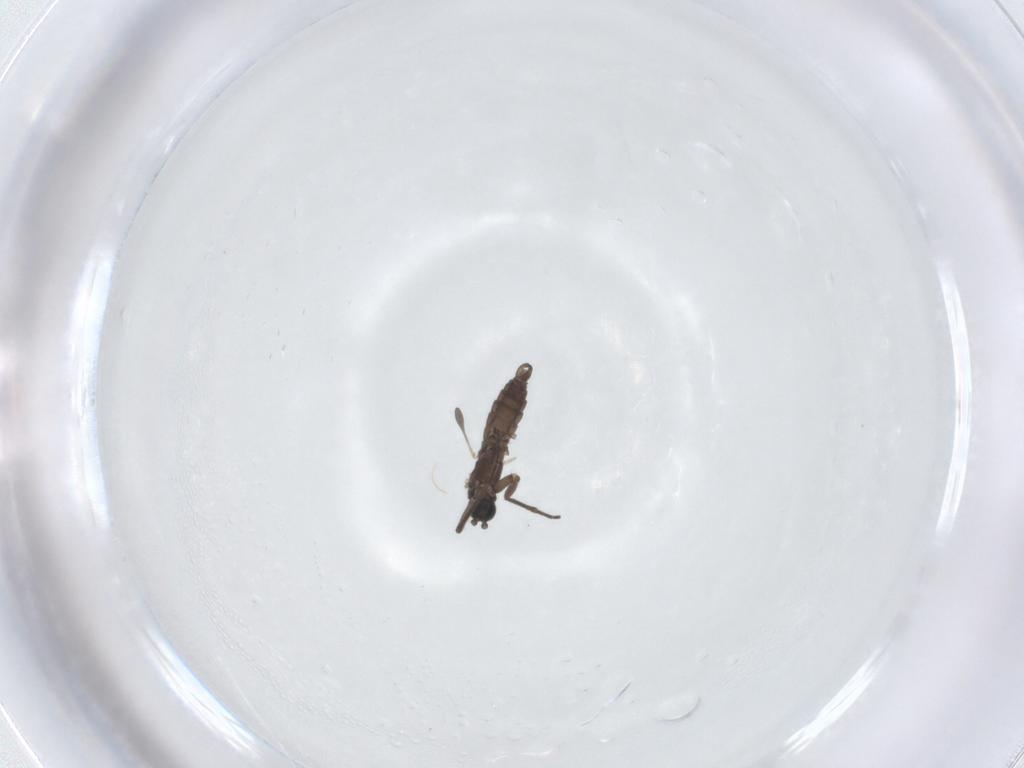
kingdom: Animalia
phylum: Arthropoda
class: Insecta
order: Diptera
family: Sciaridae
